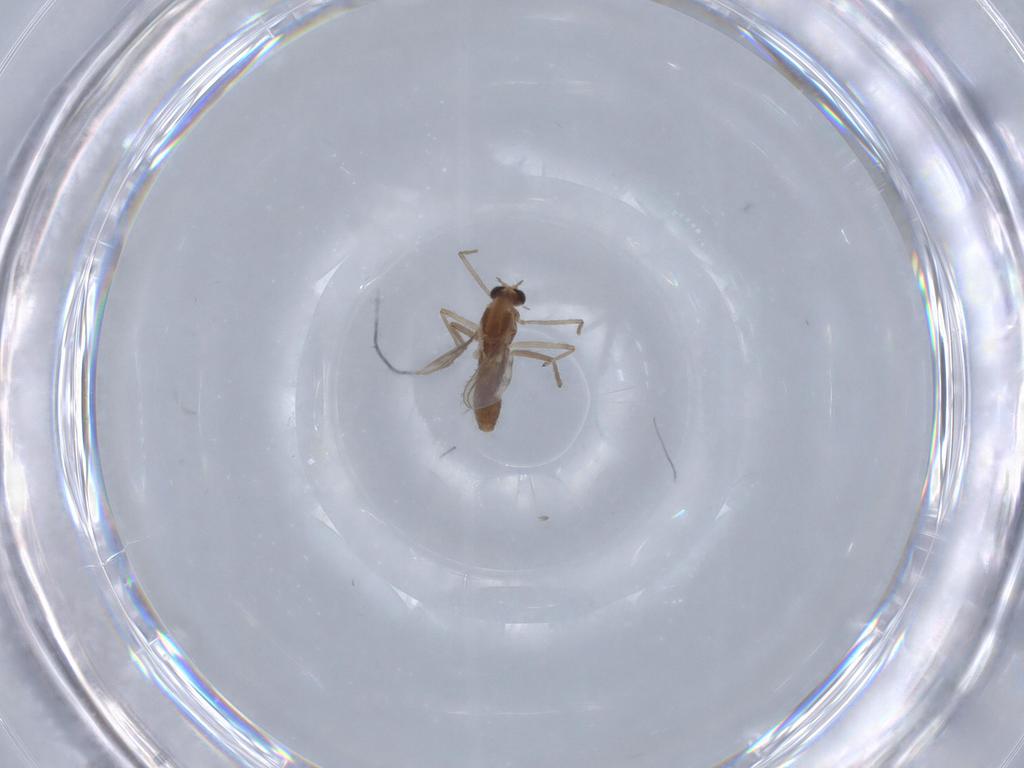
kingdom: Animalia
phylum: Arthropoda
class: Insecta
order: Diptera
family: Chironomidae
